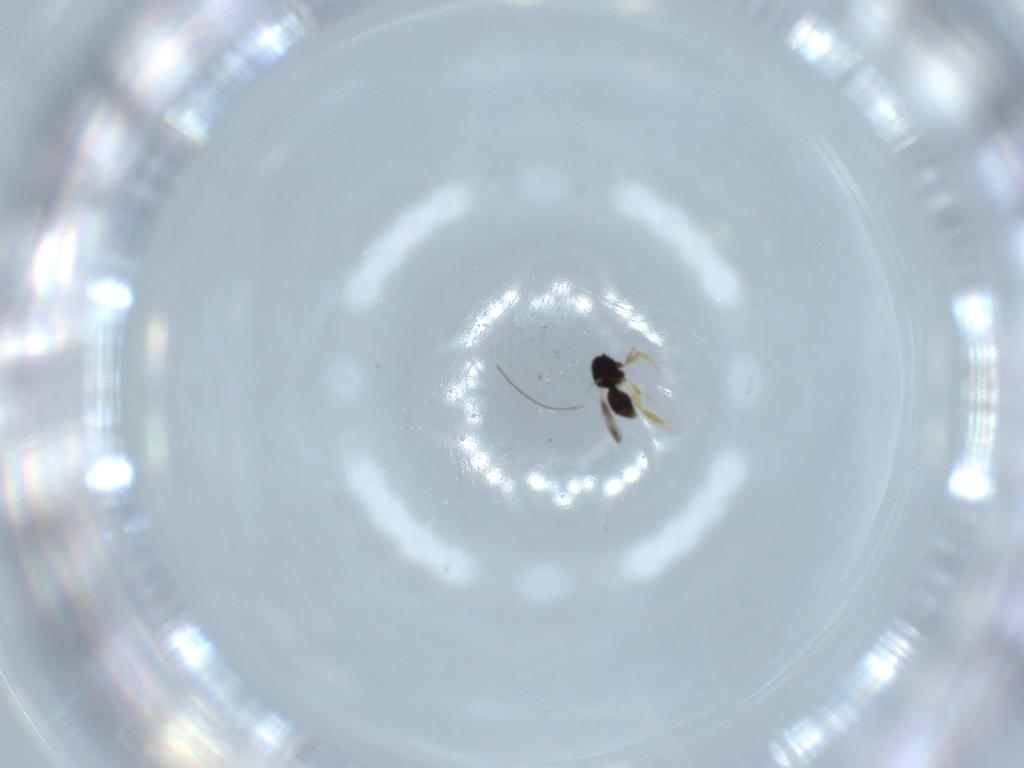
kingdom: Animalia
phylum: Arthropoda
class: Insecta
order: Hymenoptera
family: Ceraphronidae
